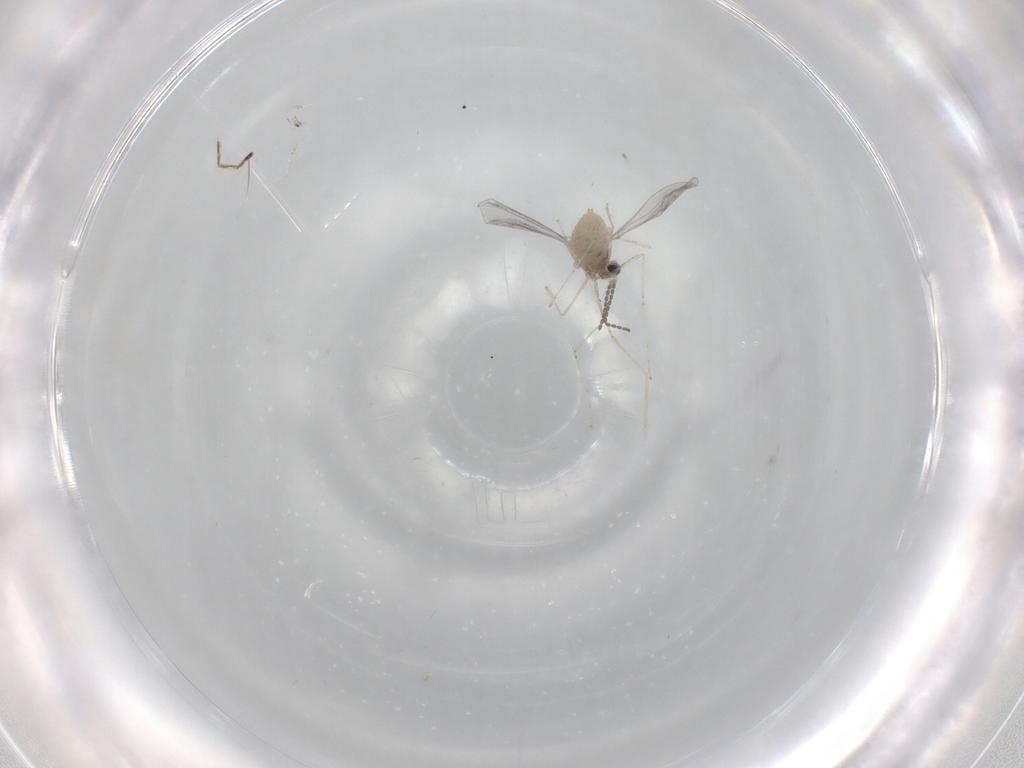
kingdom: Animalia
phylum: Arthropoda
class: Insecta
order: Diptera
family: Cecidomyiidae
